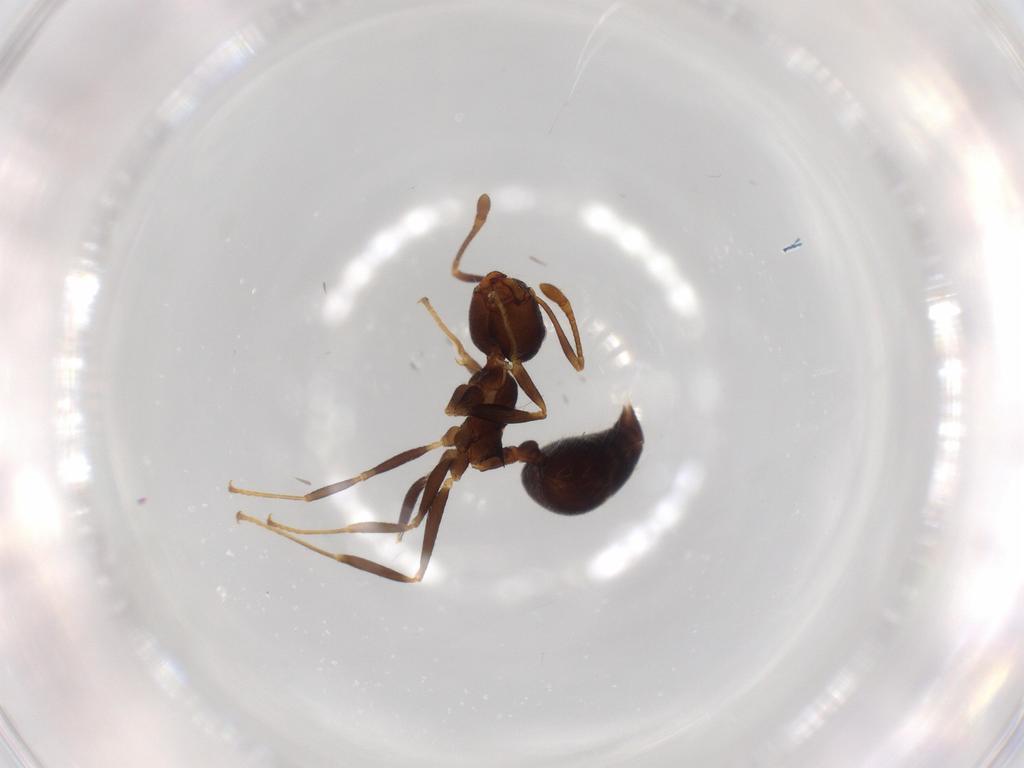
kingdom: Animalia
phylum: Arthropoda
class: Insecta
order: Hymenoptera
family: Formicidae
